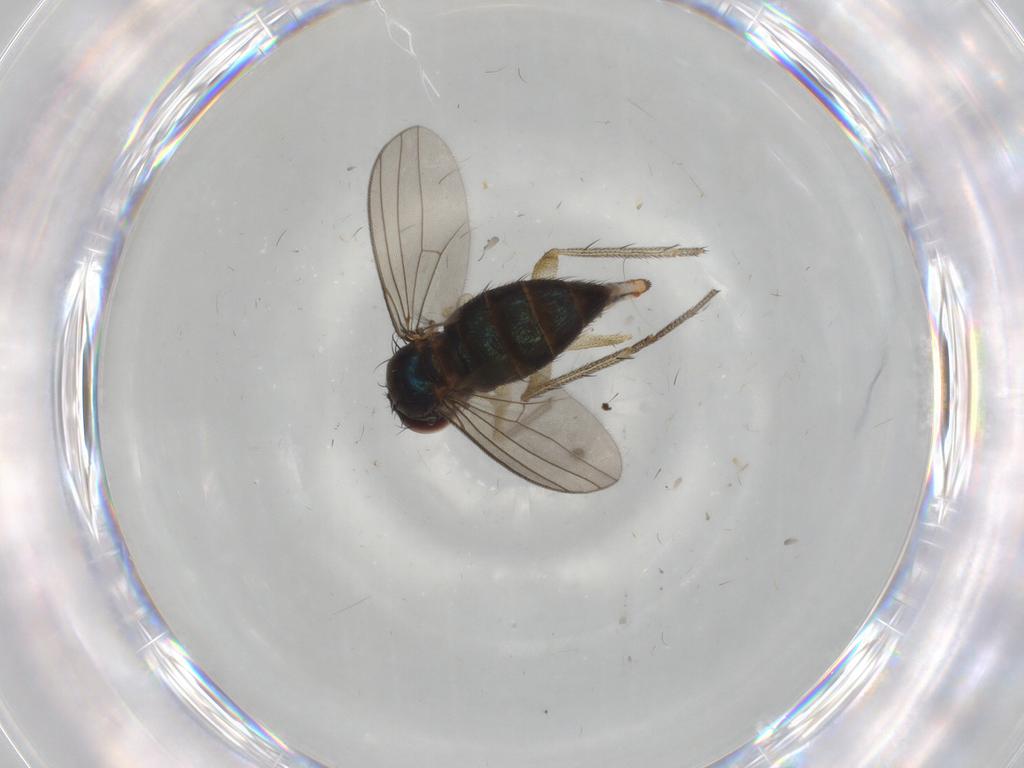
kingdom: Animalia
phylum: Arthropoda
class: Insecta
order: Diptera
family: Dolichopodidae
